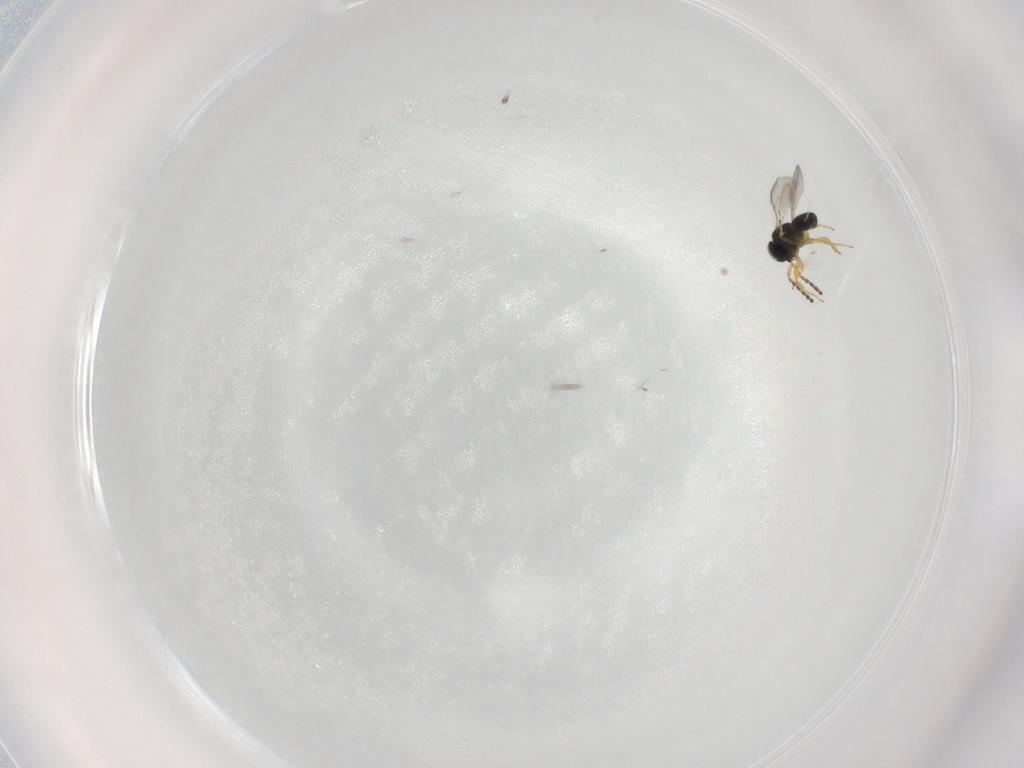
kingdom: Animalia
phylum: Arthropoda
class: Insecta
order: Hymenoptera
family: Scelionidae
